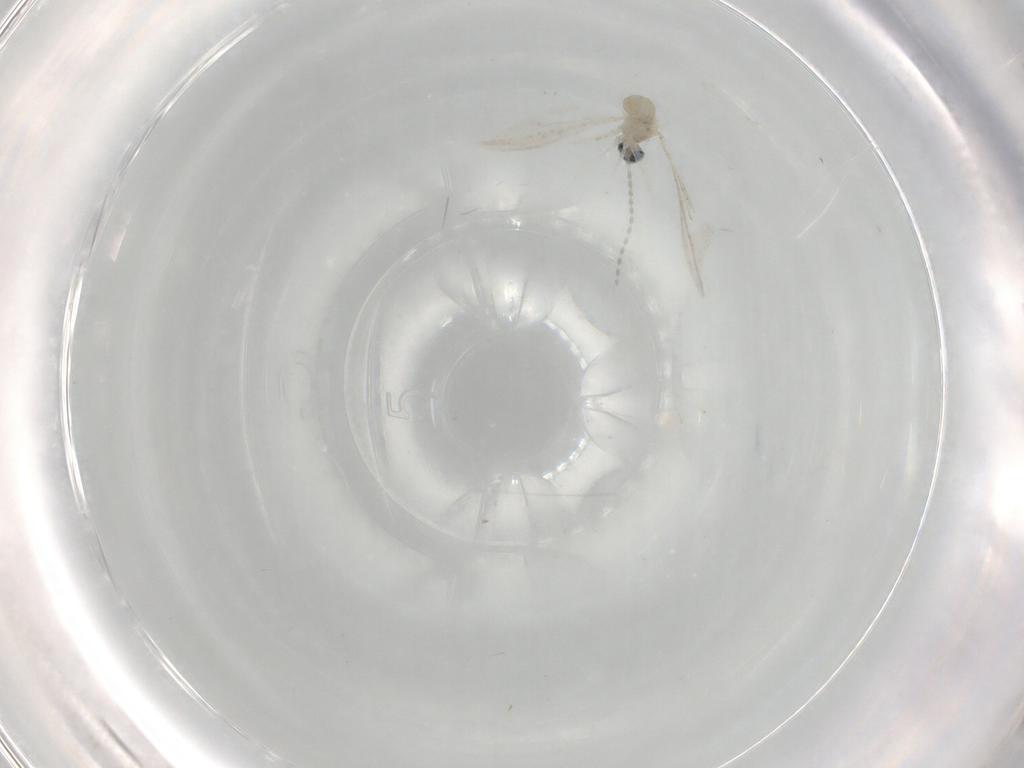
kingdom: Animalia
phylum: Arthropoda
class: Insecta
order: Diptera
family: Cecidomyiidae
